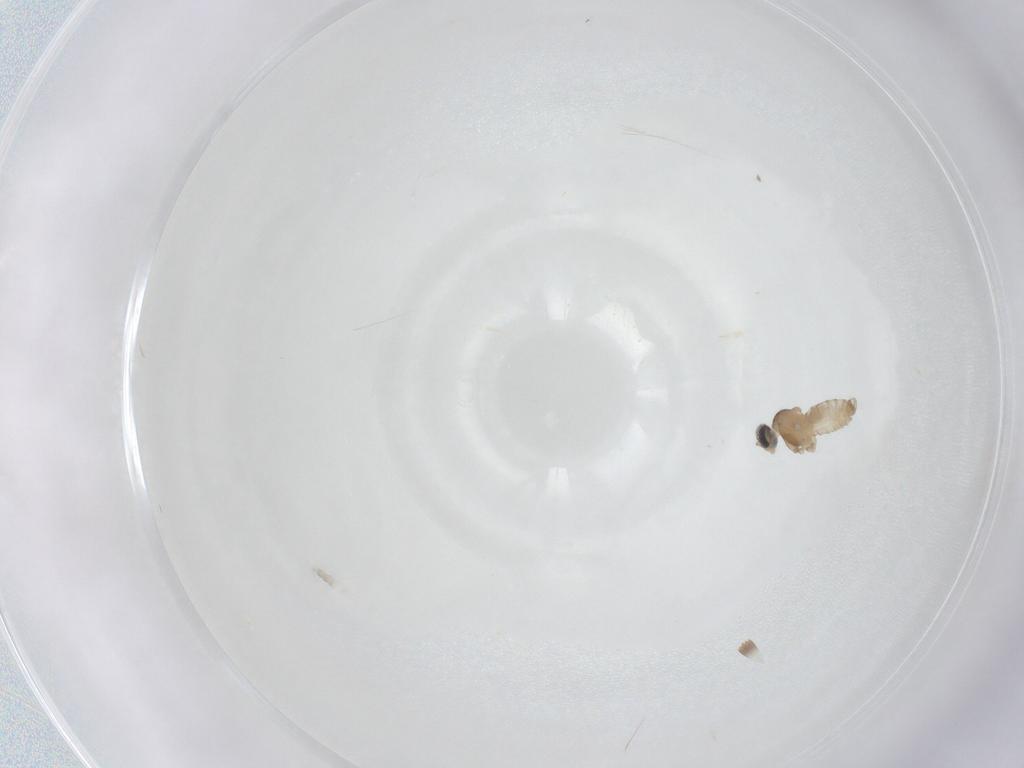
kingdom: Animalia
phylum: Arthropoda
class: Insecta
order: Diptera
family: Cecidomyiidae
